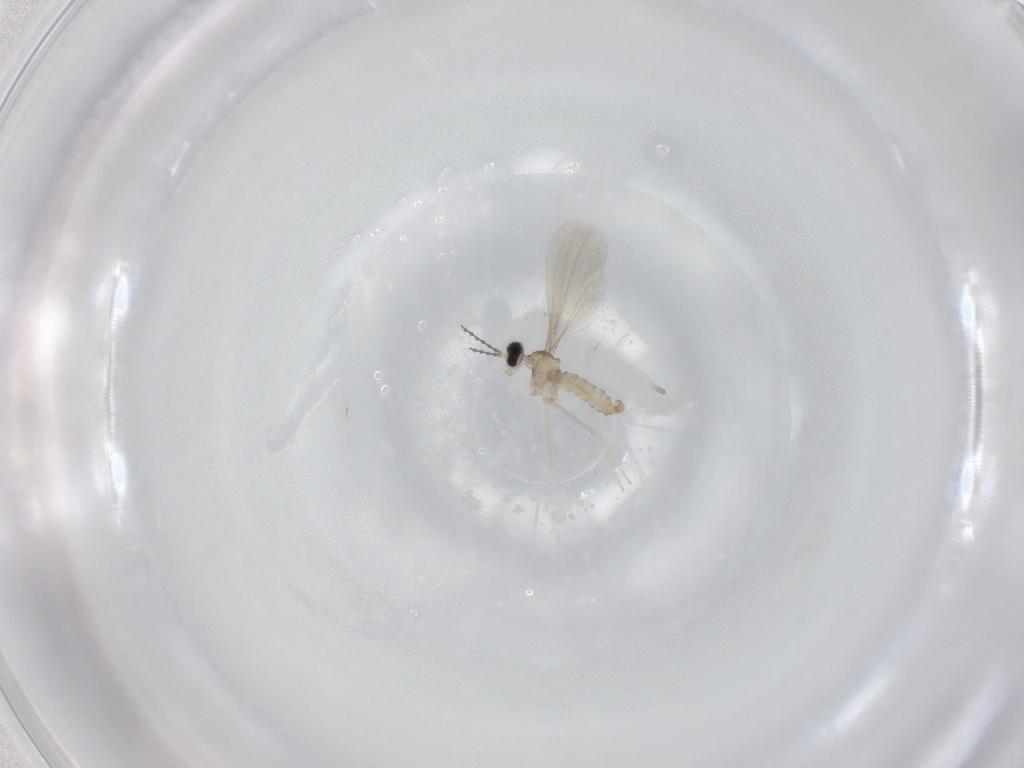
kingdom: Animalia
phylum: Arthropoda
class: Insecta
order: Diptera
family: Cecidomyiidae
